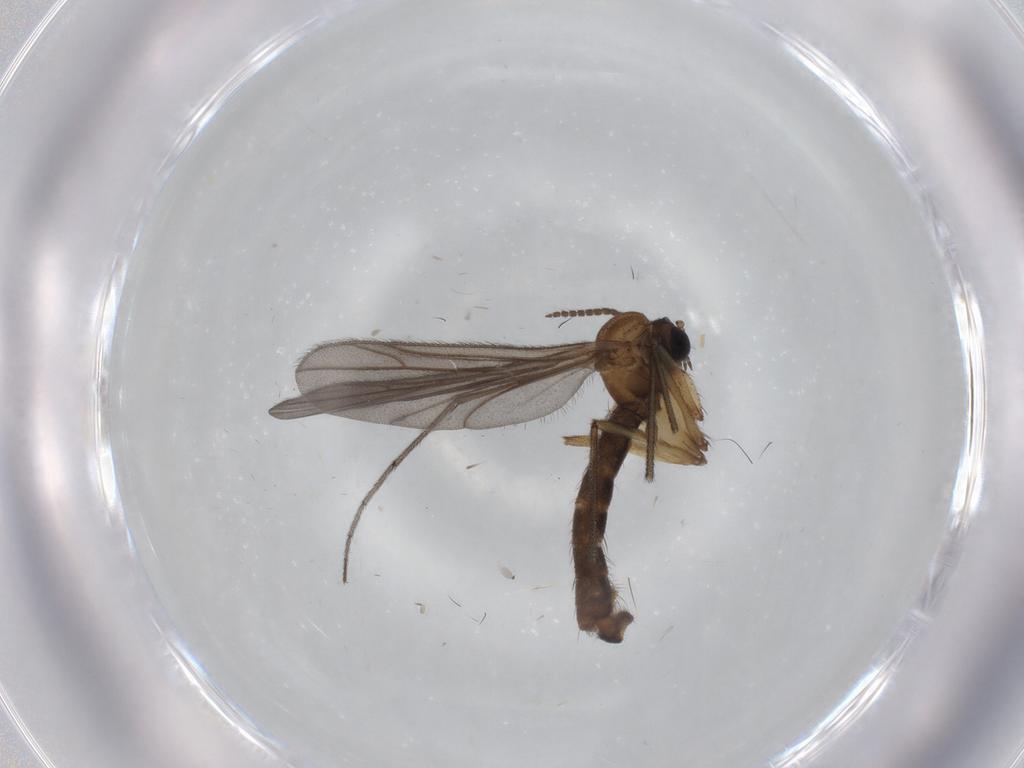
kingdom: Animalia
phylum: Arthropoda
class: Insecta
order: Diptera
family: Ditomyiidae
